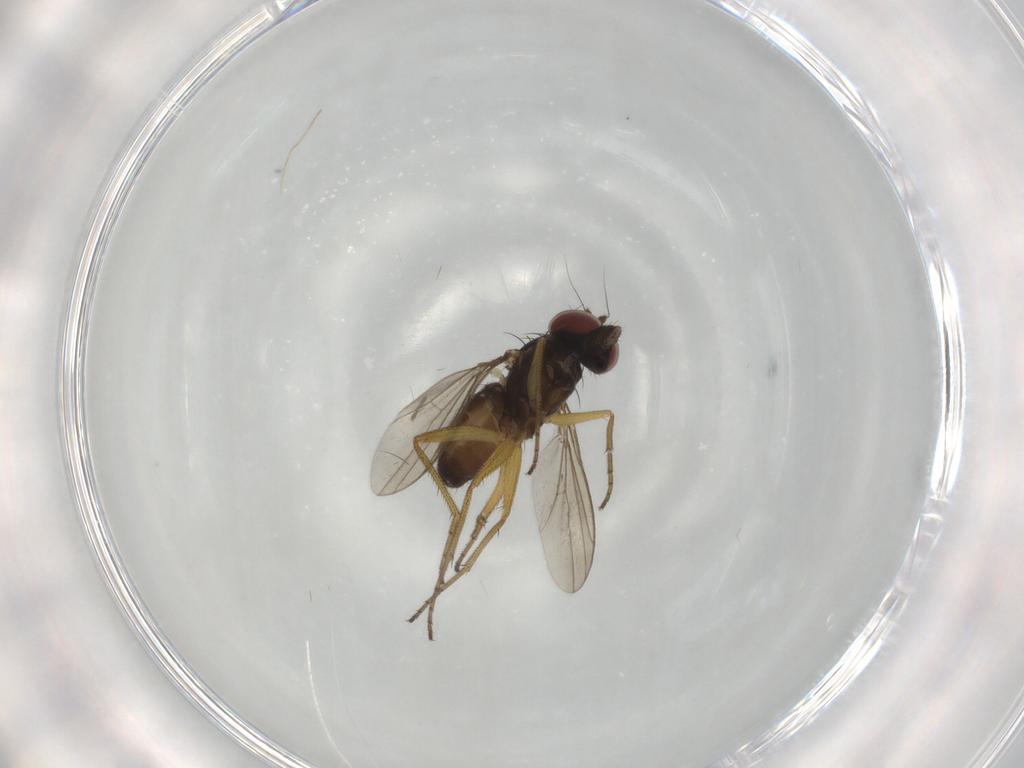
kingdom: Animalia
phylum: Arthropoda
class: Insecta
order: Diptera
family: Dolichopodidae
